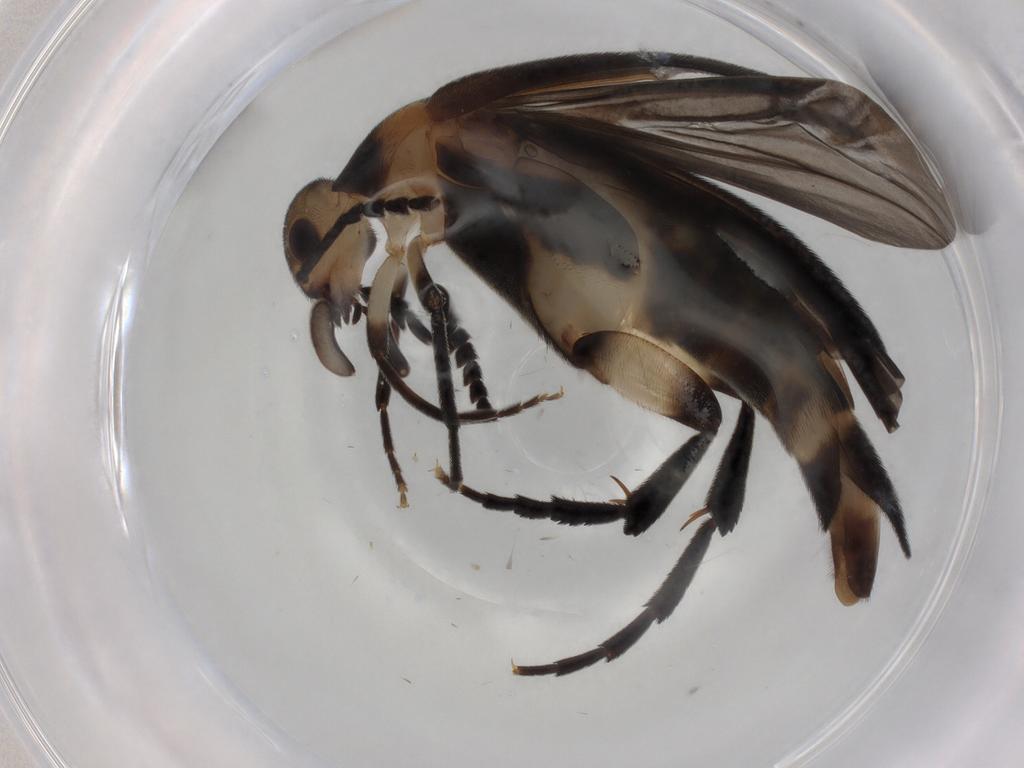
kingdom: Animalia
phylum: Arthropoda
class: Insecta
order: Coleoptera
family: Mordellidae
